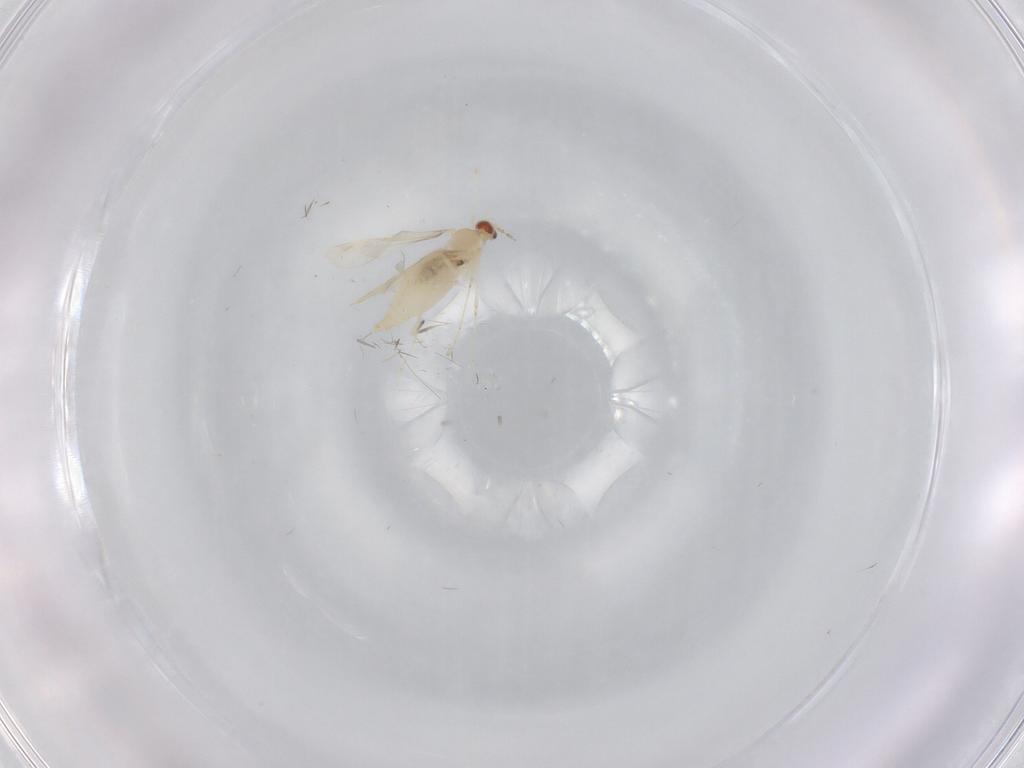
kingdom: Animalia
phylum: Arthropoda
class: Insecta
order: Diptera
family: Cecidomyiidae
